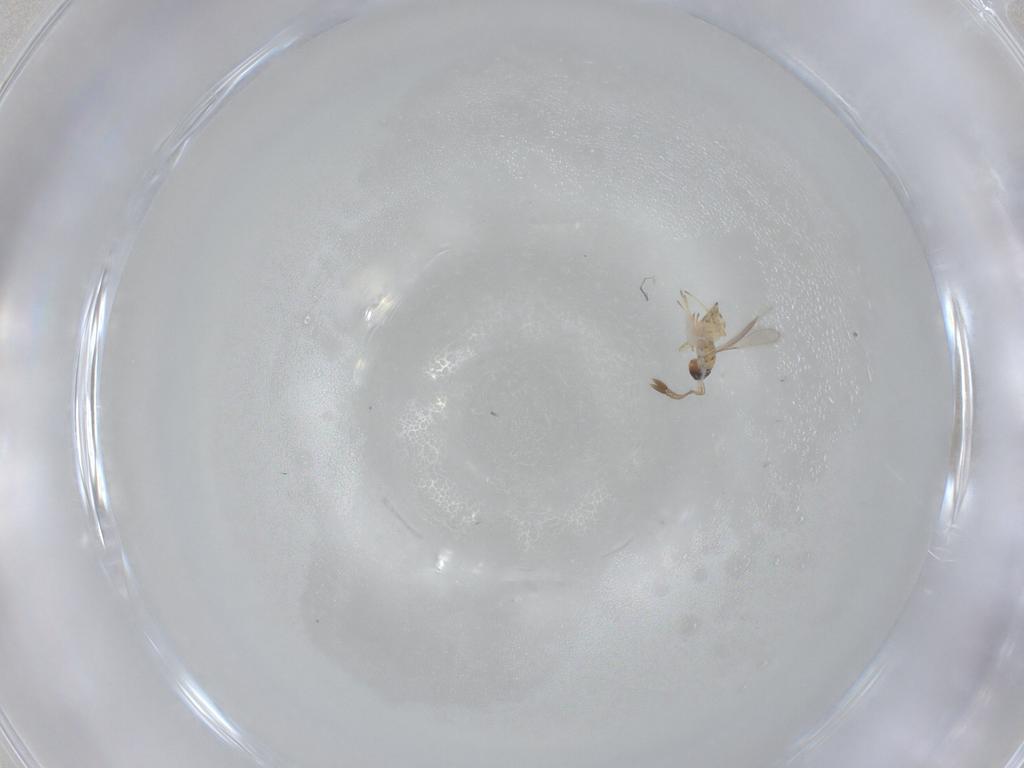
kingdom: Animalia
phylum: Arthropoda
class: Insecta
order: Hymenoptera
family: Mymaridae
